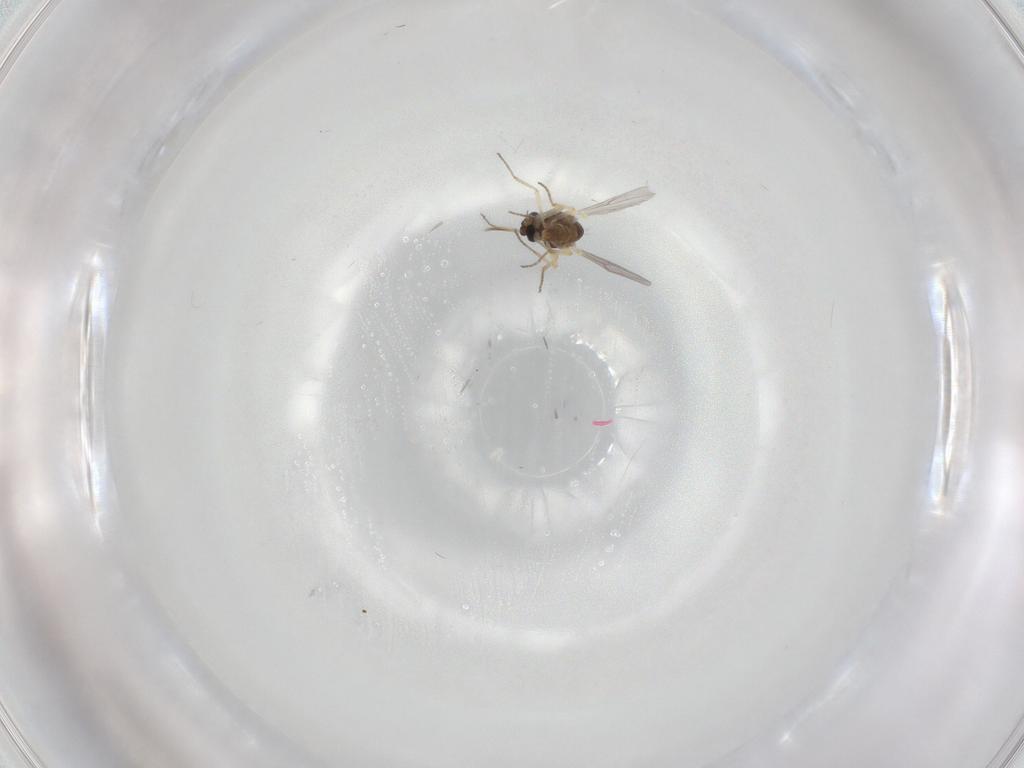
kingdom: Animalia
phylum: Arthropoda
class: Insecta
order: Diptera
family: Ceratopogonidae
